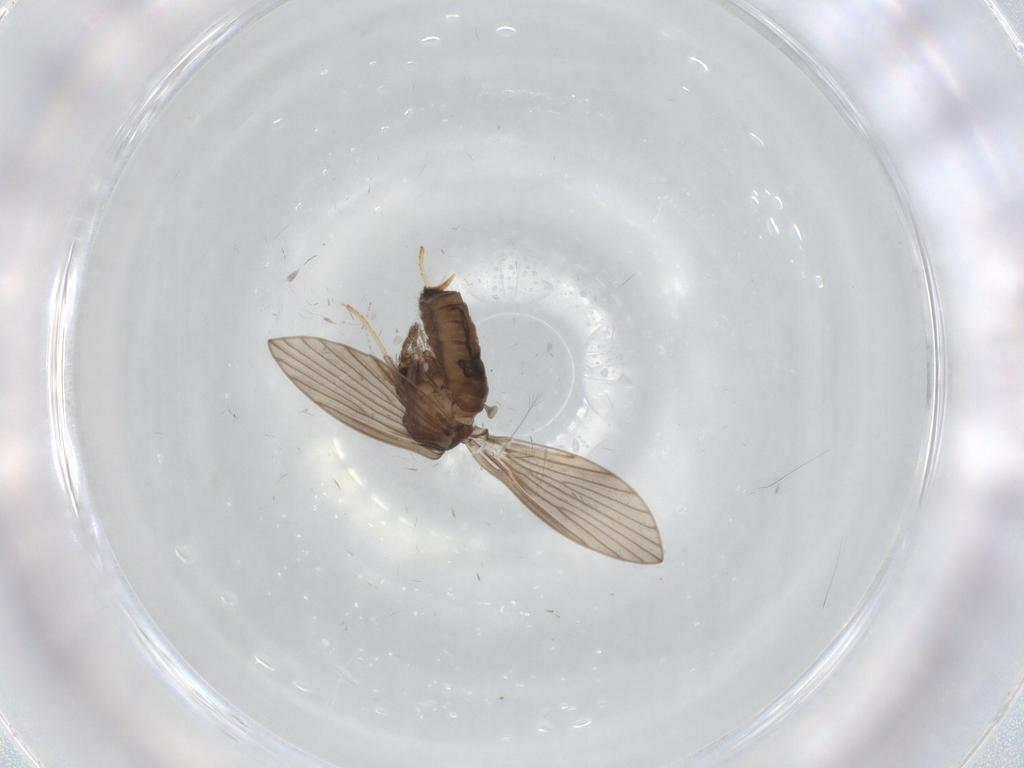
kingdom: Animalia
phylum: Arthropoda
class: Insecta
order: Diptera
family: Psychodidae
